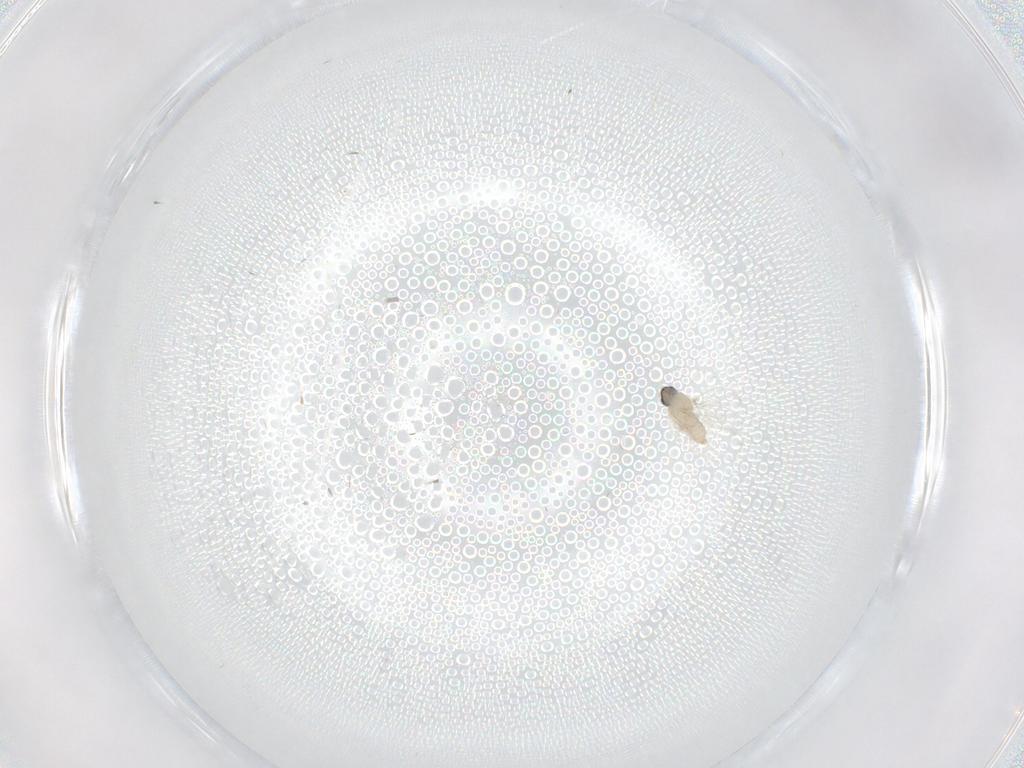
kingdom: Animalia
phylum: Arthropoda
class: Insecta
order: Diptera
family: Cecidomyiidae
